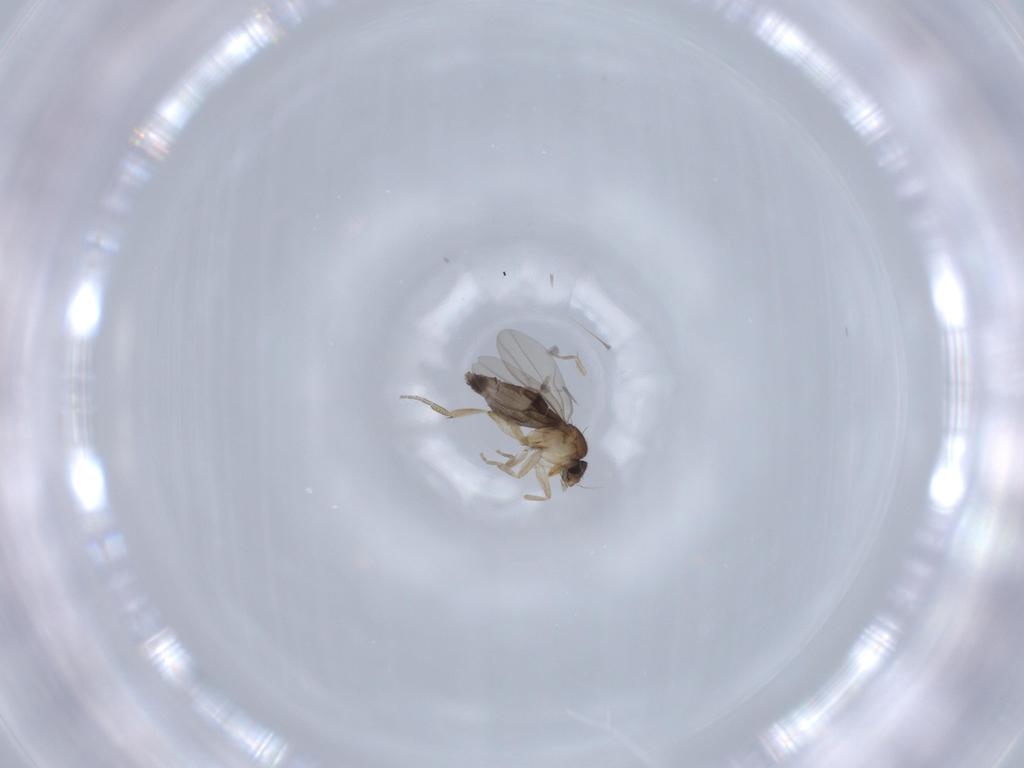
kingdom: Animalia
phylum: Arthropoda
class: Insecta
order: Diptera
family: Phoridae
